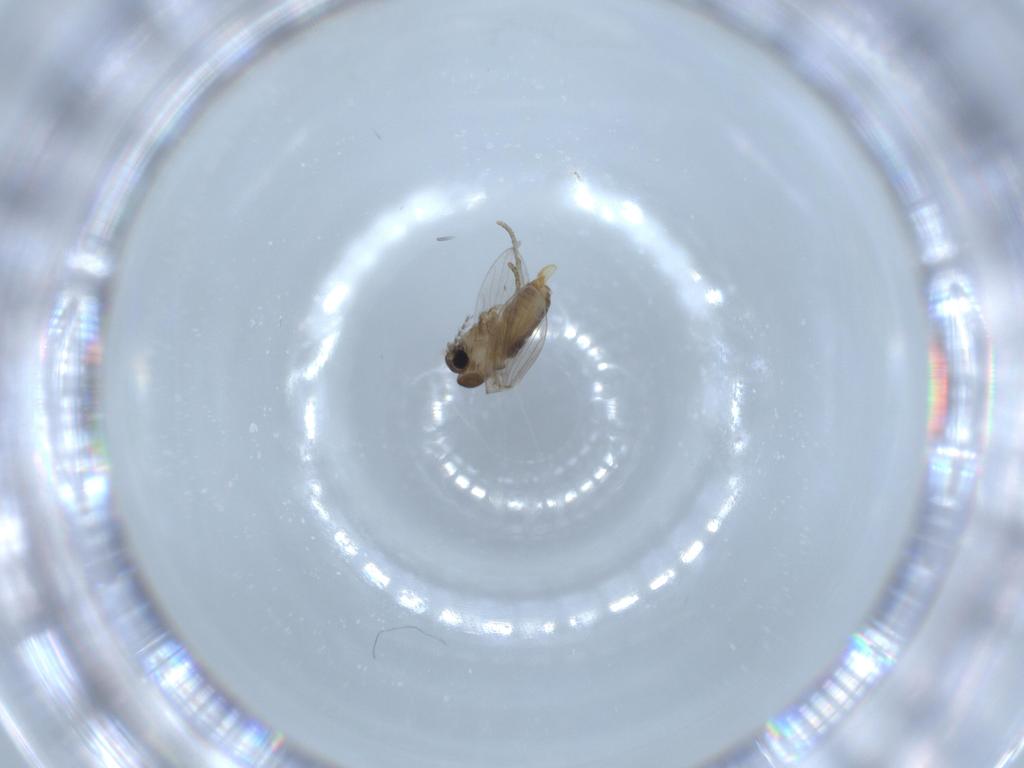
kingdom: Animalia
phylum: Arthropoda
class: Insecta
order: Diptera
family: Psychodidae
